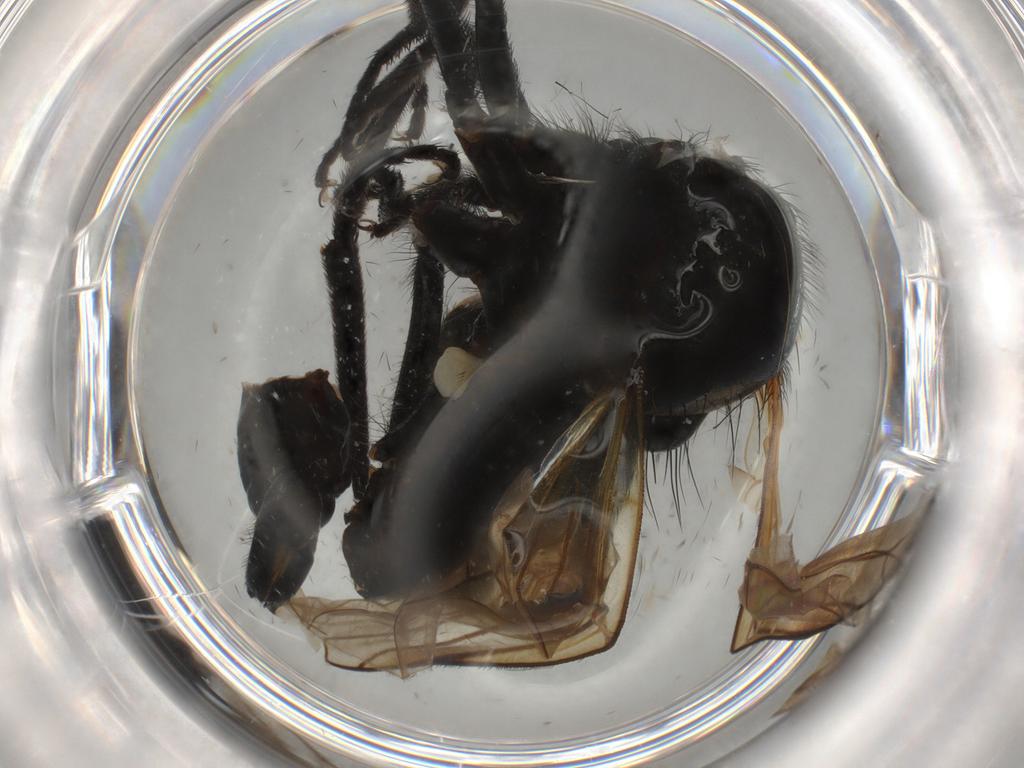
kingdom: Animalia
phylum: Arthropoda
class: Insecta
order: Diptera
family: Empididae
